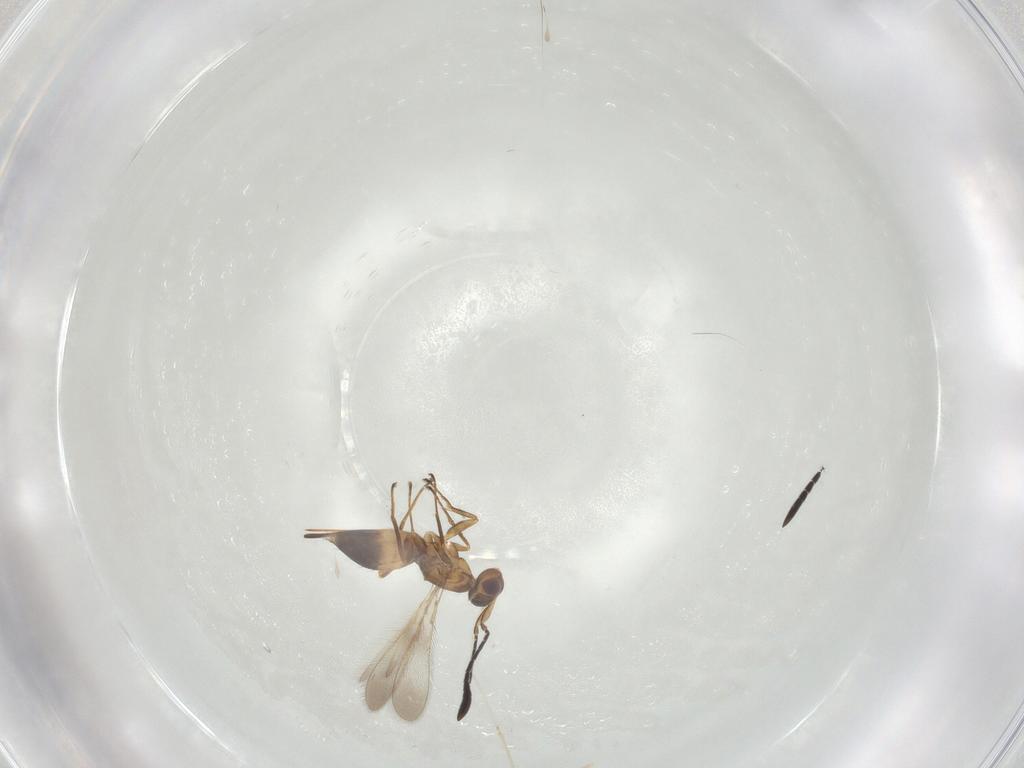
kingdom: Animalia
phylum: Arthropoda
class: Insecta
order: Hymenoptera
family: Mymaridae
